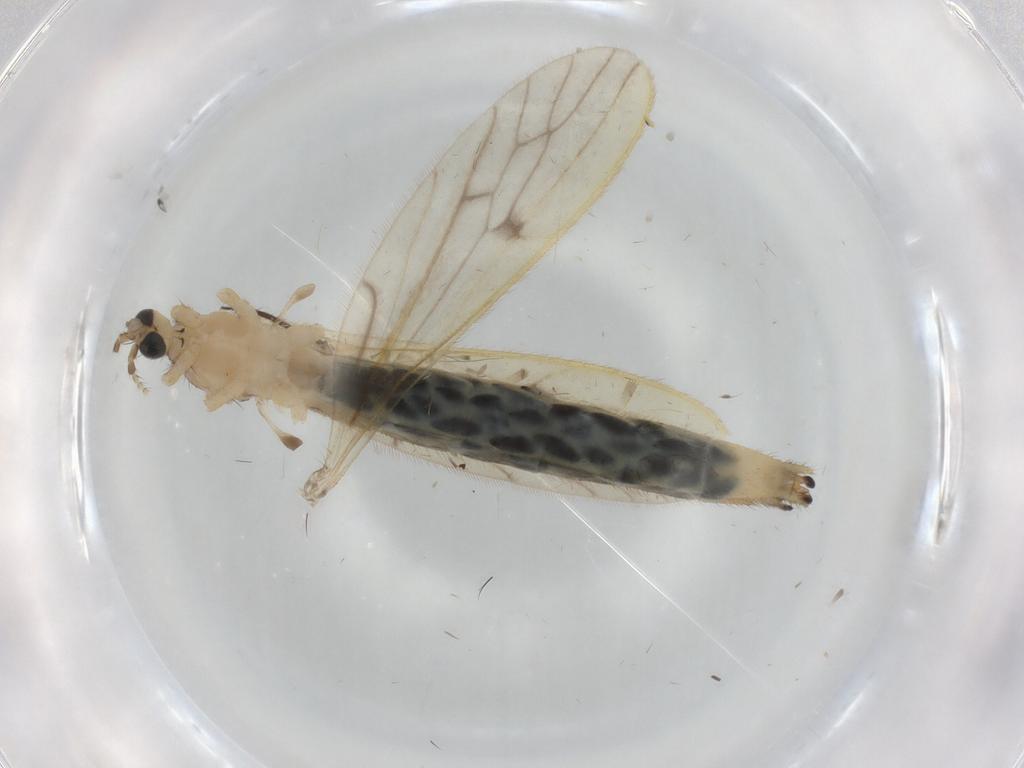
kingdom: Animalia
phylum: Arthropoda
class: Insecta
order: Diptera
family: Limoniidae
